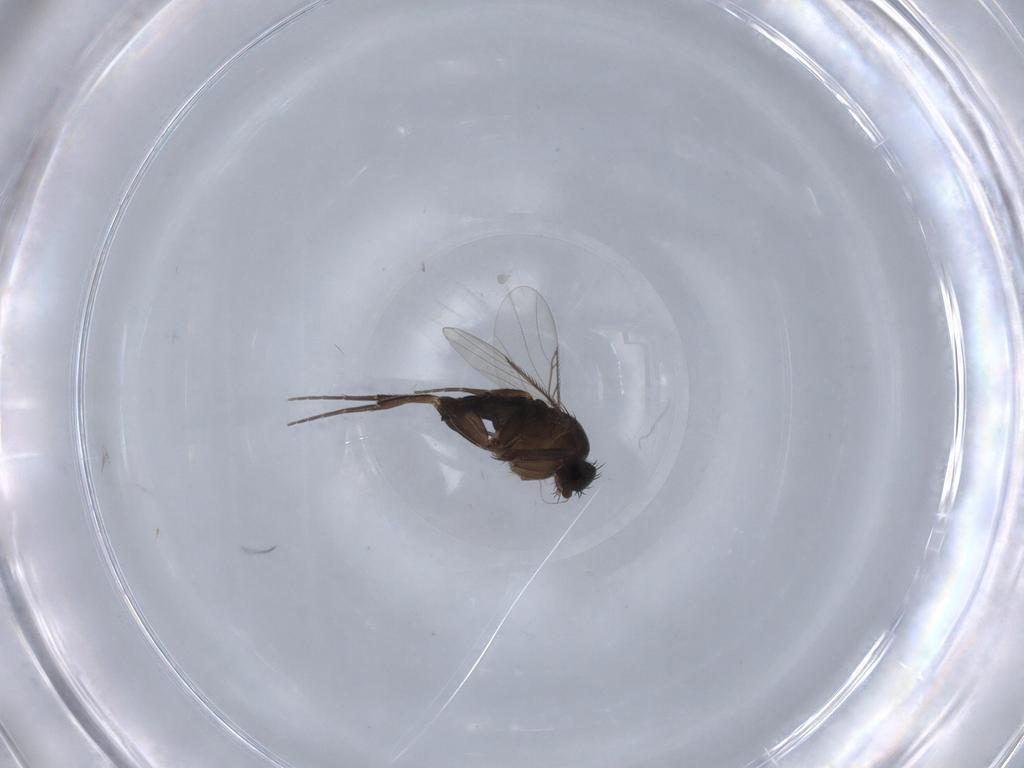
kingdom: Animalia
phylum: Arthropoda
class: Insecta
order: Diptera
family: Phoridae
